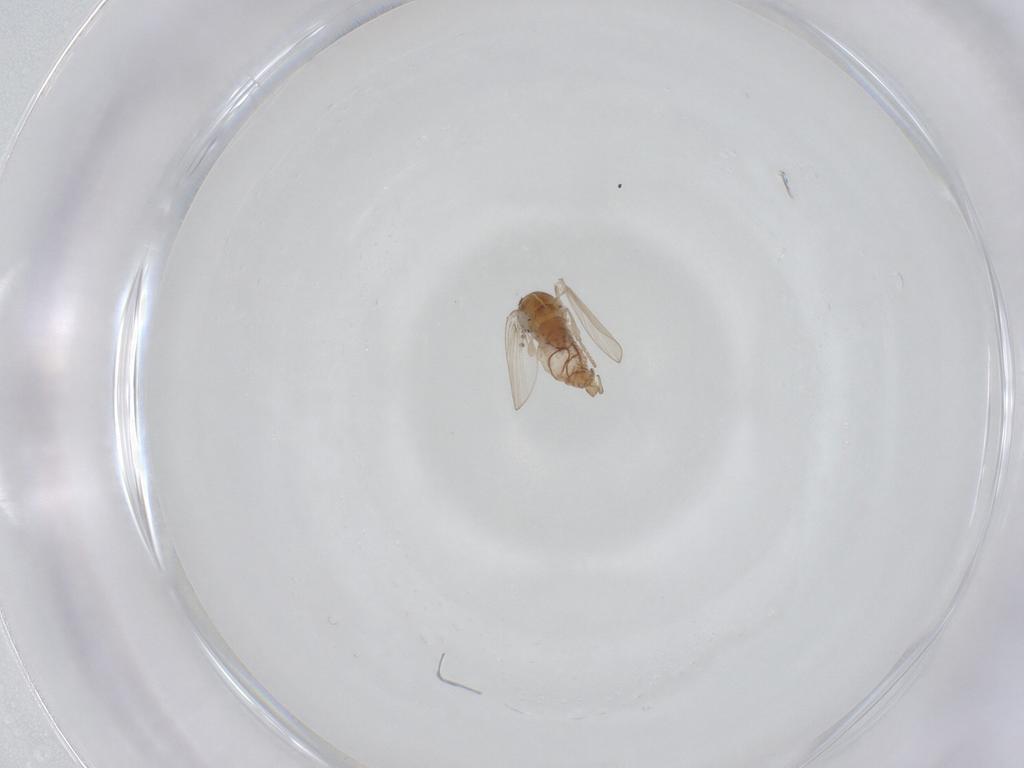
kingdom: Animalia
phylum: Arthropoda
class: Insecta
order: Diptera
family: Psychodidae
